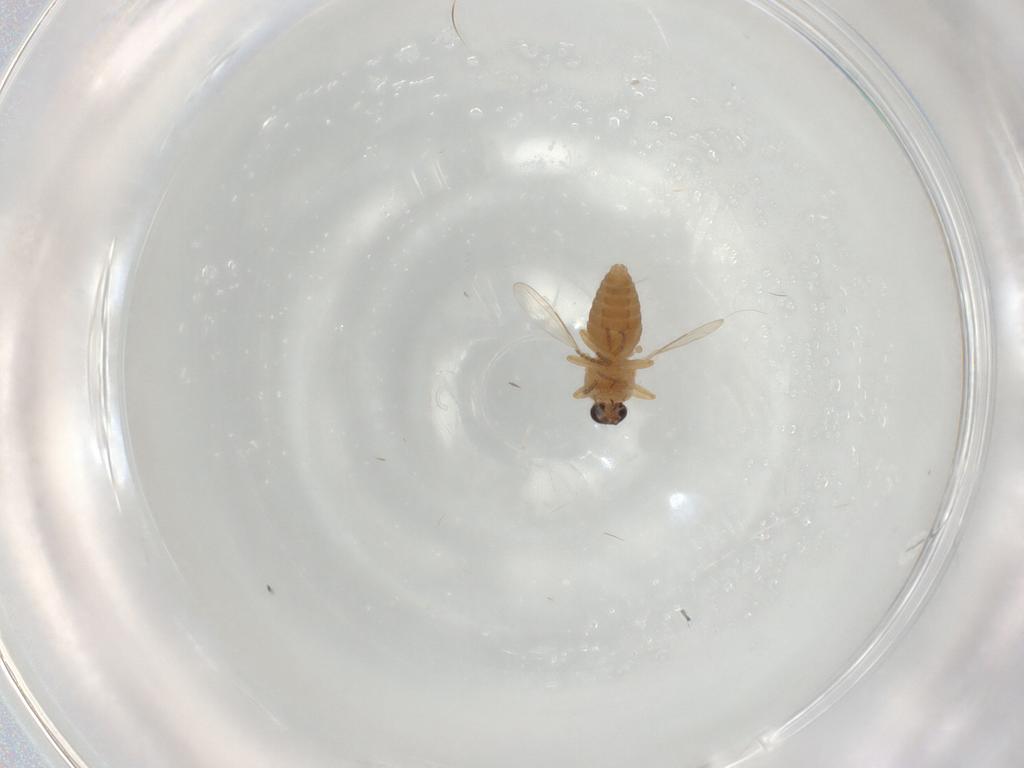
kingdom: Animalia
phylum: Arthropoda
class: Insecta
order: Diptera
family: Ceratopogonidae
